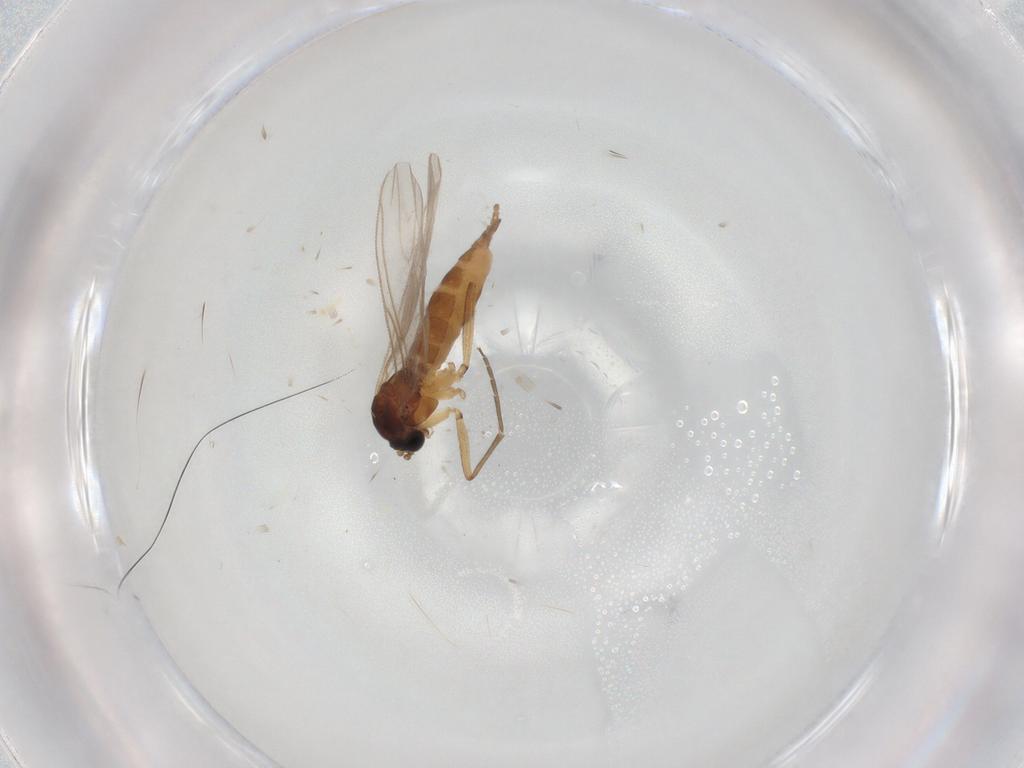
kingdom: Animalia
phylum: Arthropoda
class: Insecta
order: Diptera
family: Sciaridae
